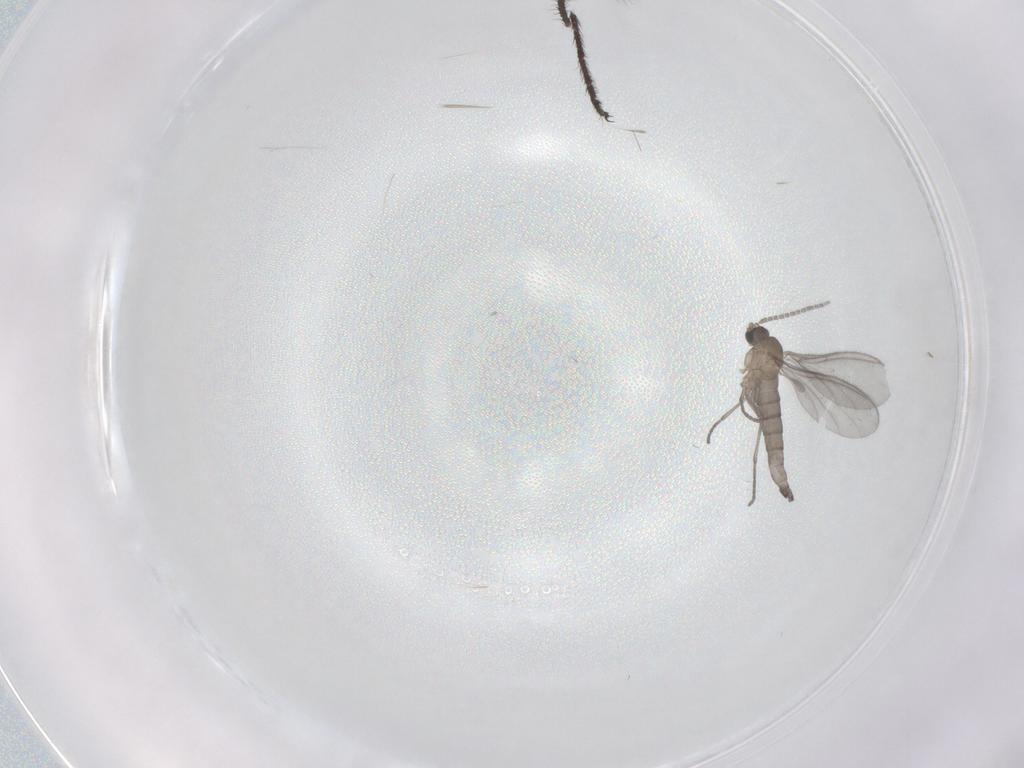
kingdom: Animalia
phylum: Arthropoda
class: Insecta
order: Diptera
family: Sciaridae
